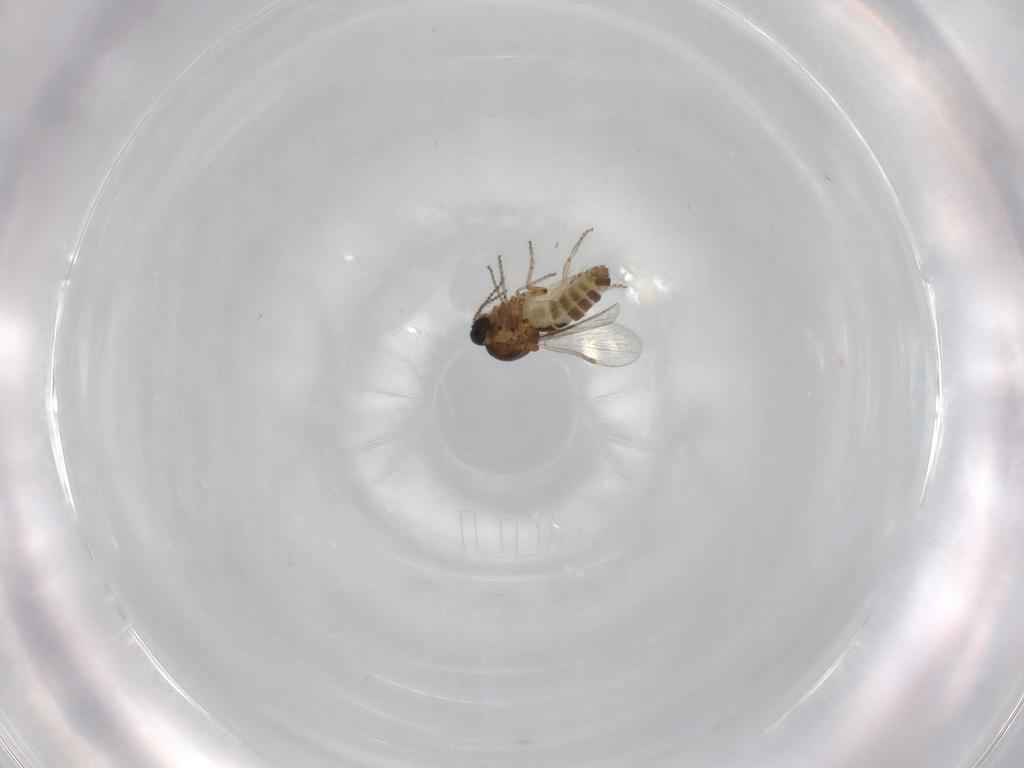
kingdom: Animalia
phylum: Arthropoda
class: Insecta
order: Diptera
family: Ceratopogonidae
